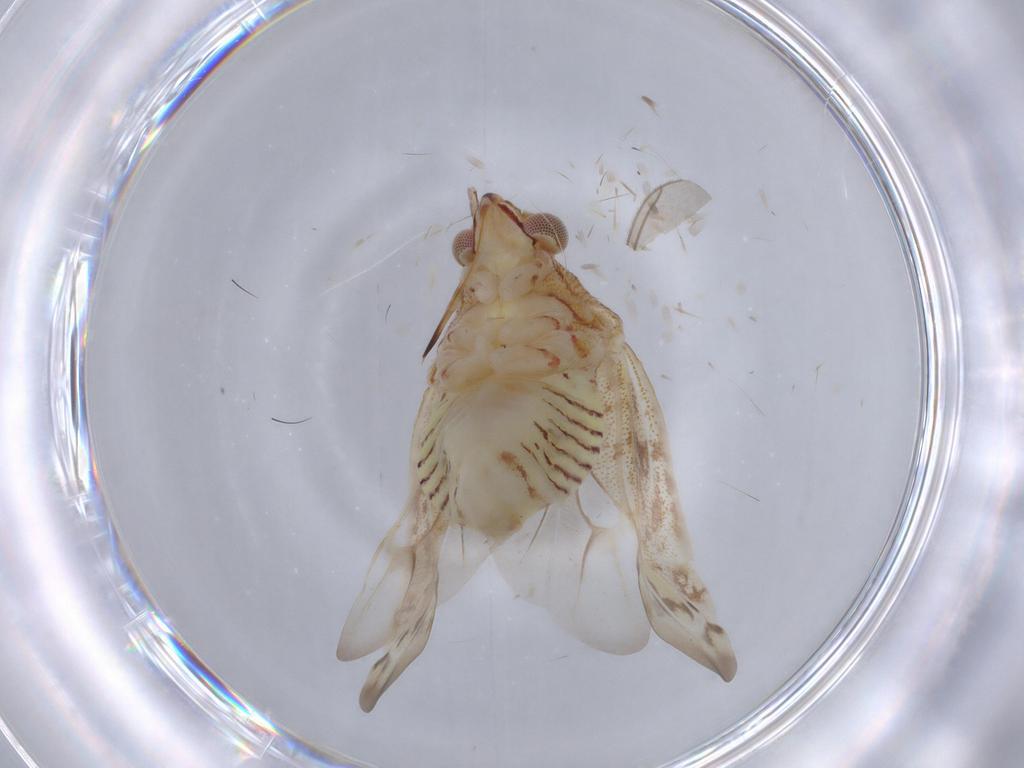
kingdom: Animalia
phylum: Arthropoda
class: Insecta
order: Hemiptera
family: Miridae
